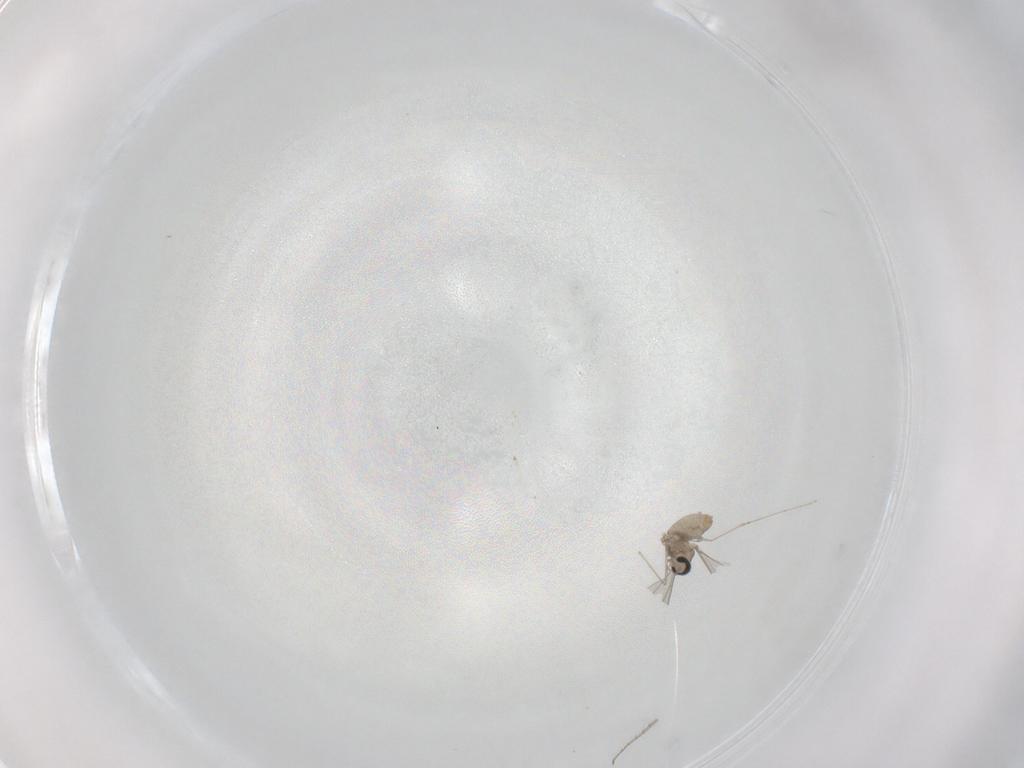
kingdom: Animalia
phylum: Arthropoda
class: Insecta
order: Diptera
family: Ceratopogonidae
